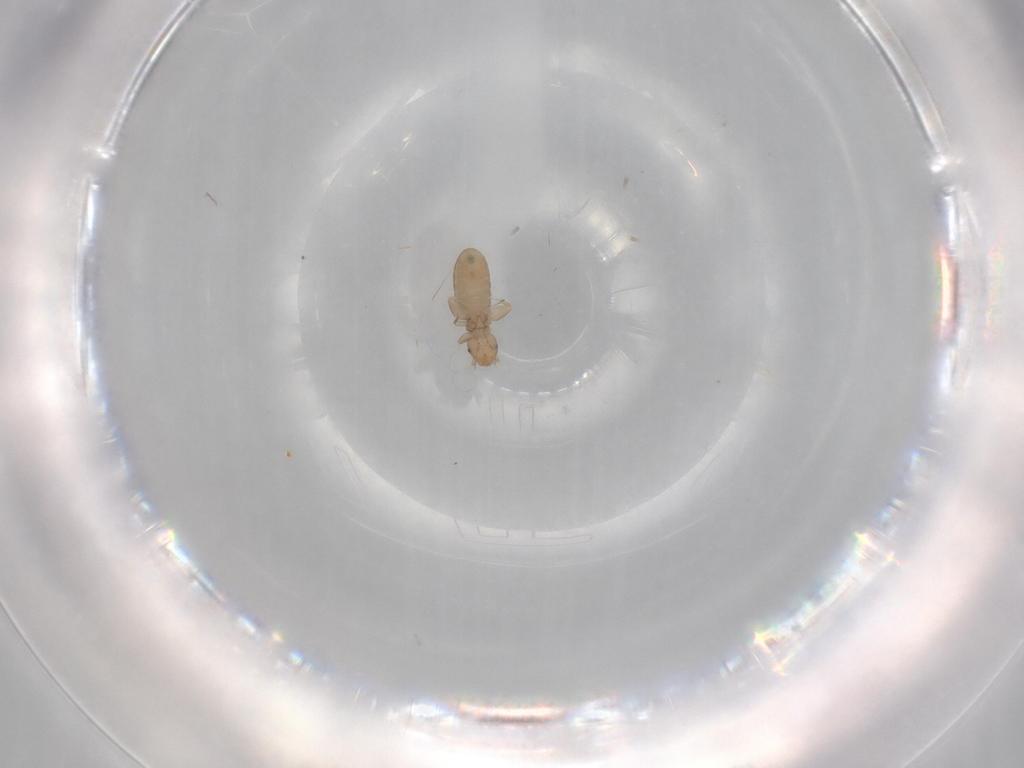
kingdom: Animalia
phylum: Arthropoda
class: Insecta
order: Psocodea
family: Liposcelididae
